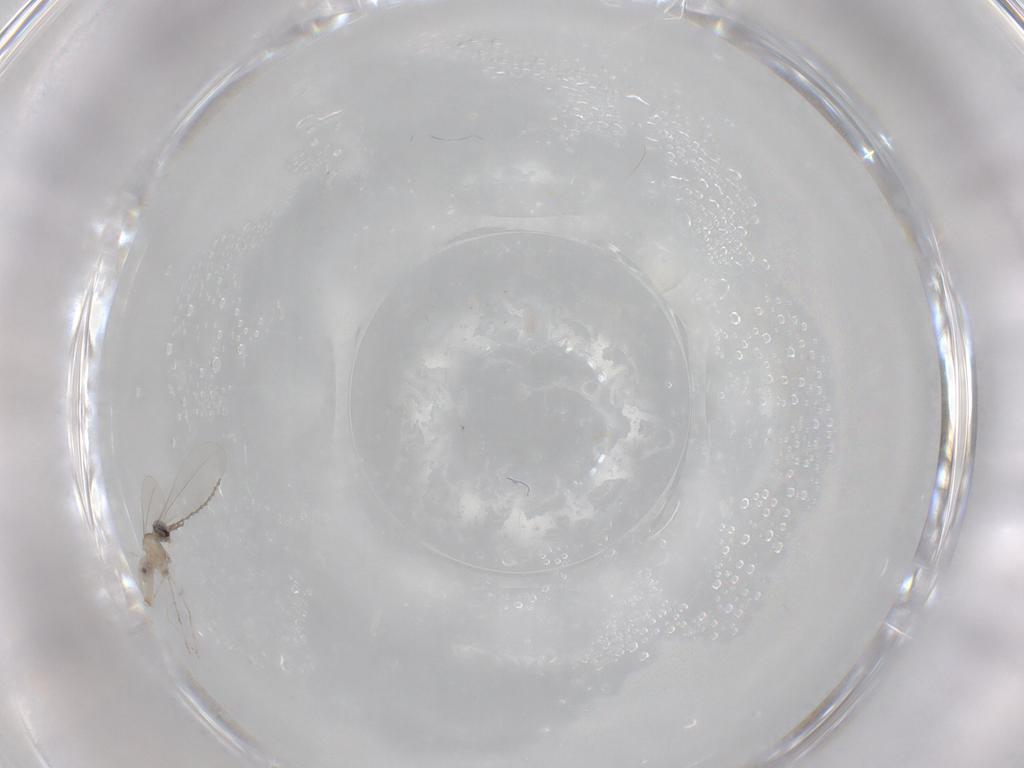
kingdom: Animalia
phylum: Arthropoda
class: Insecta
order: Diptera
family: Cecidomyiidae
